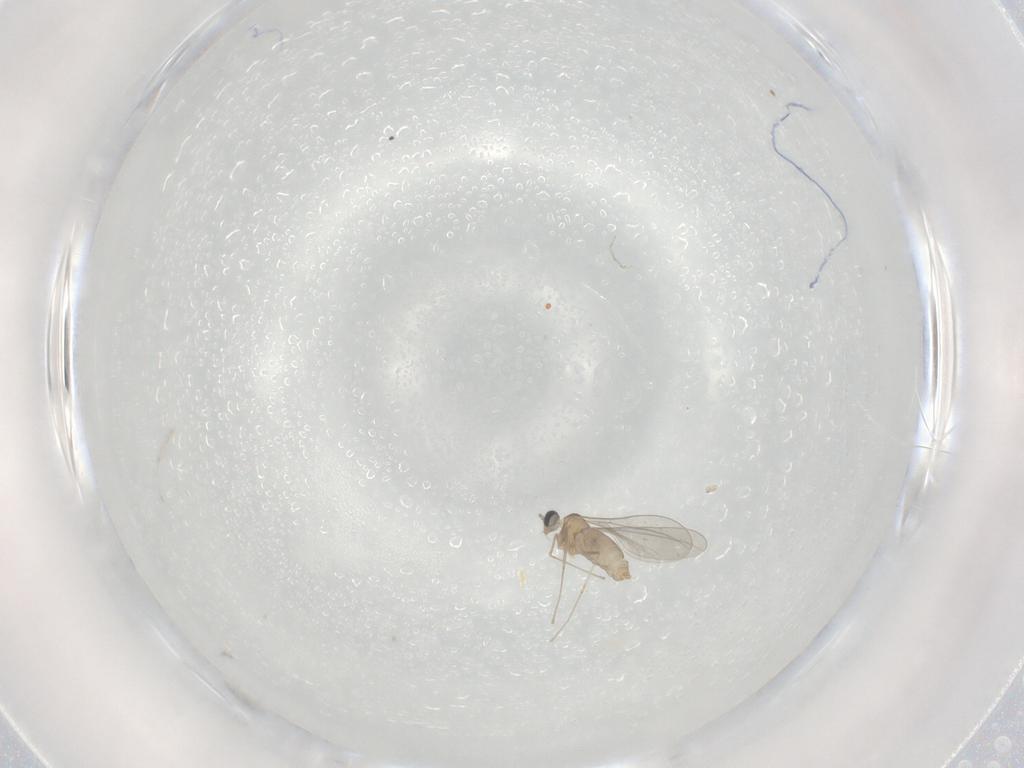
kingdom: Animalia
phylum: Arthropoda
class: Insecta
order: Diptera
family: Cecidomyiidae
